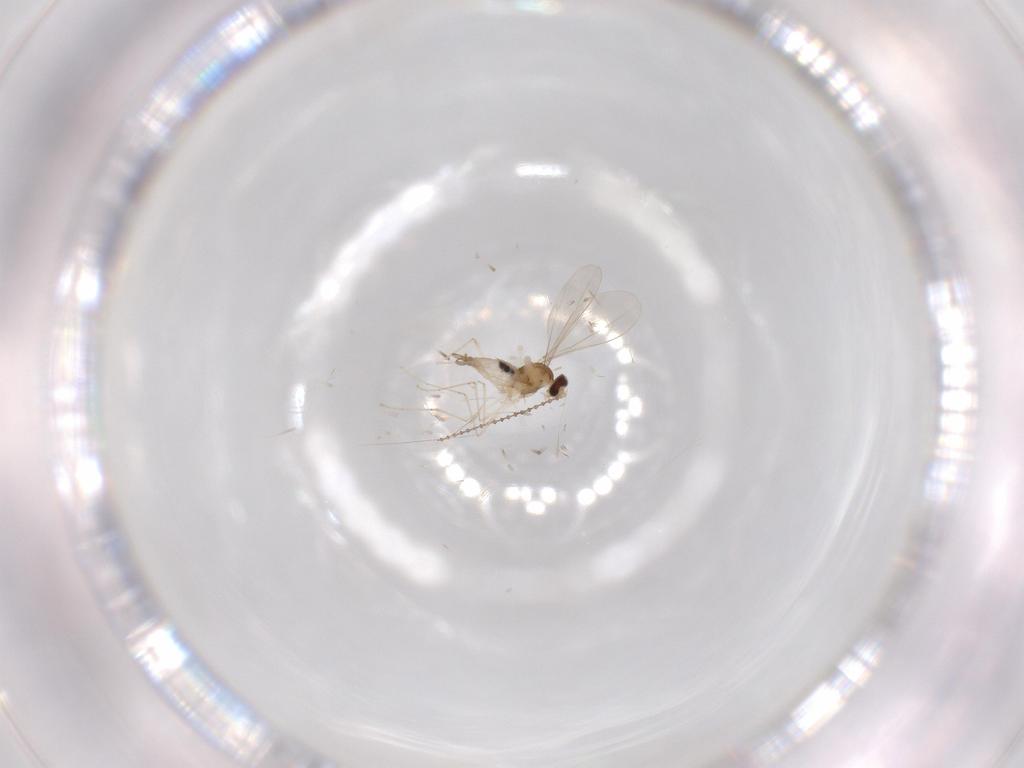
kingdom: Animalia
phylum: Arthropoda
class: Insecta
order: Diptera
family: Cecidomyiidae
